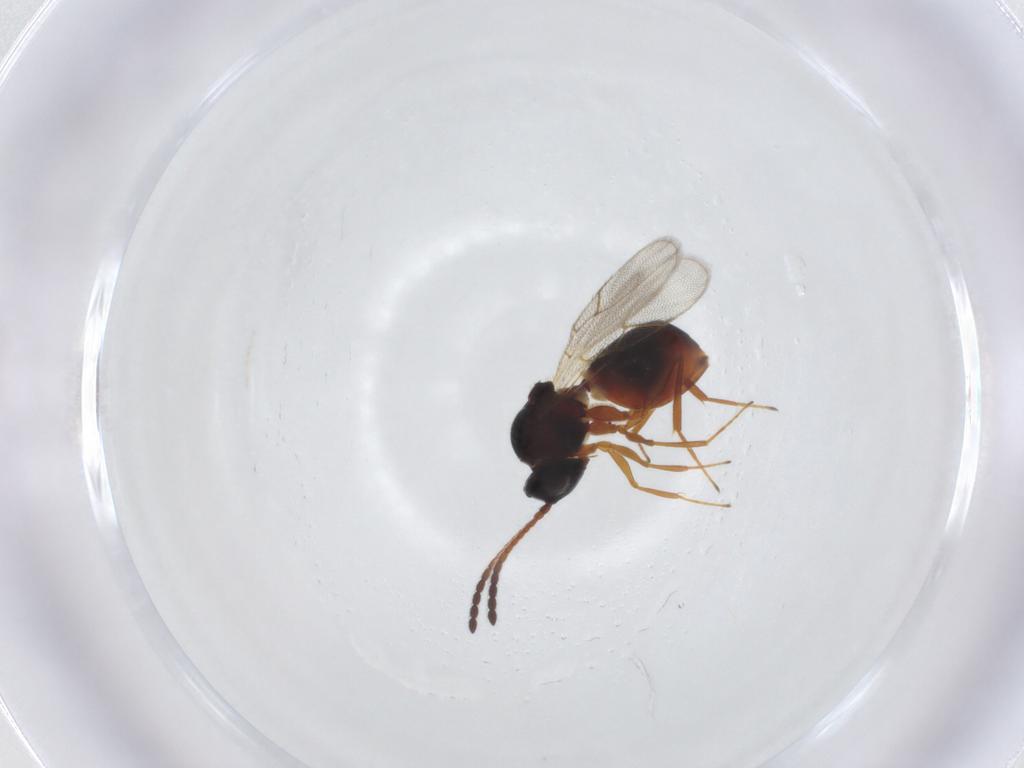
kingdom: Animalia
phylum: Arthropoda
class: Insecta
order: Hymenoptera
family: Figitidae
